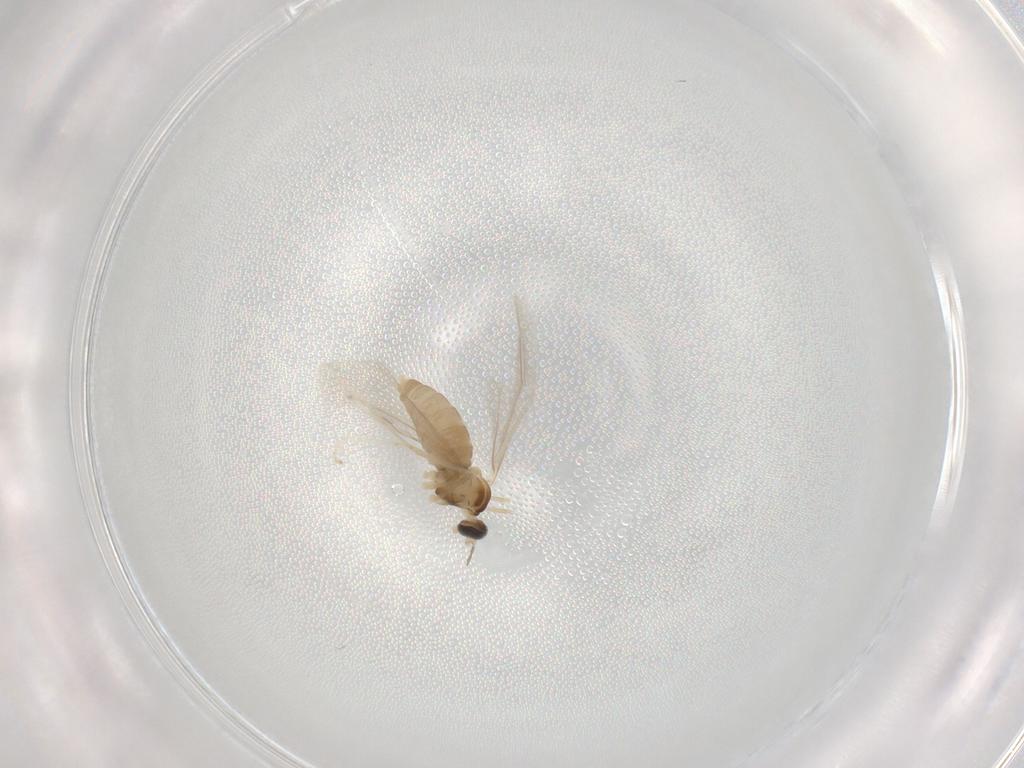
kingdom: Animalia
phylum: Arthropoda
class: Insecta
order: Diptera
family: Cecidomyiidae
